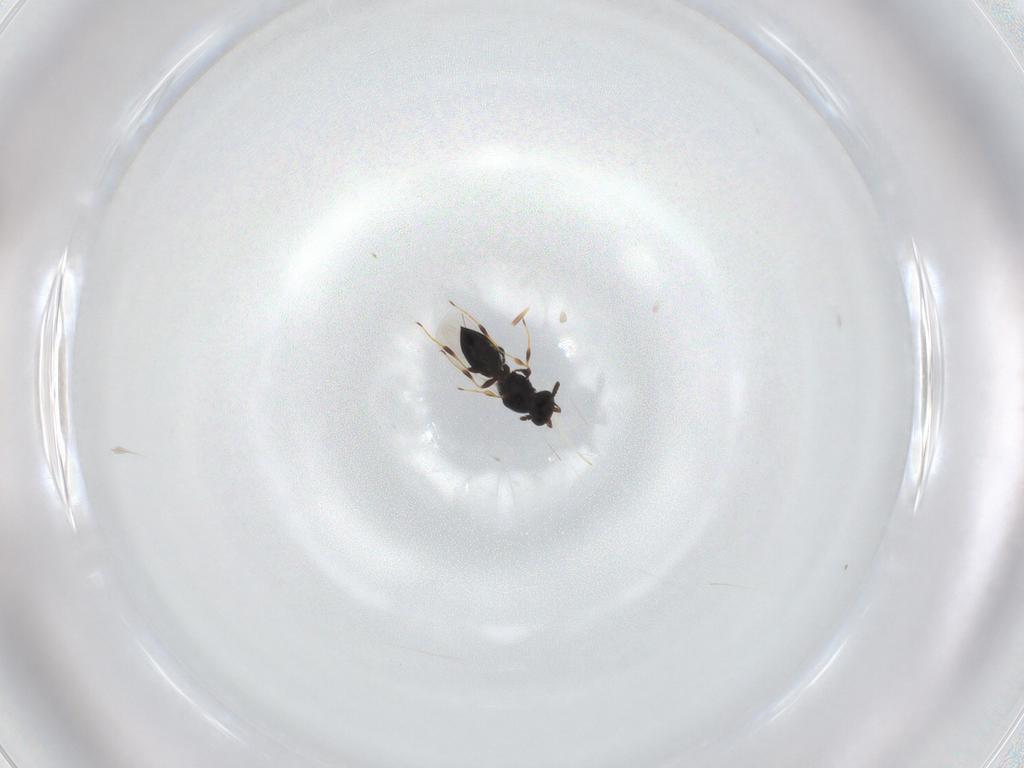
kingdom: Animalia
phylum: Arthropoda
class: Insecta
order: Hymenoptera
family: Platygastridae
